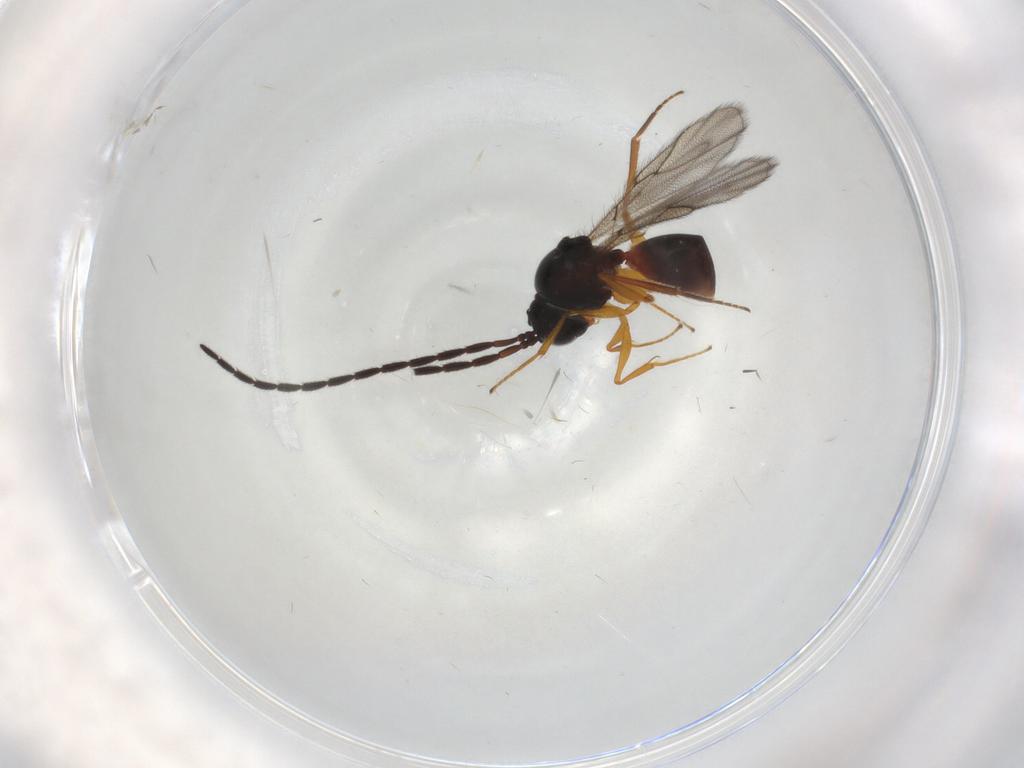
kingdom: Animalia
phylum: Arthropoda
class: Insecta
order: Hymenoptera
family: Figitidae
